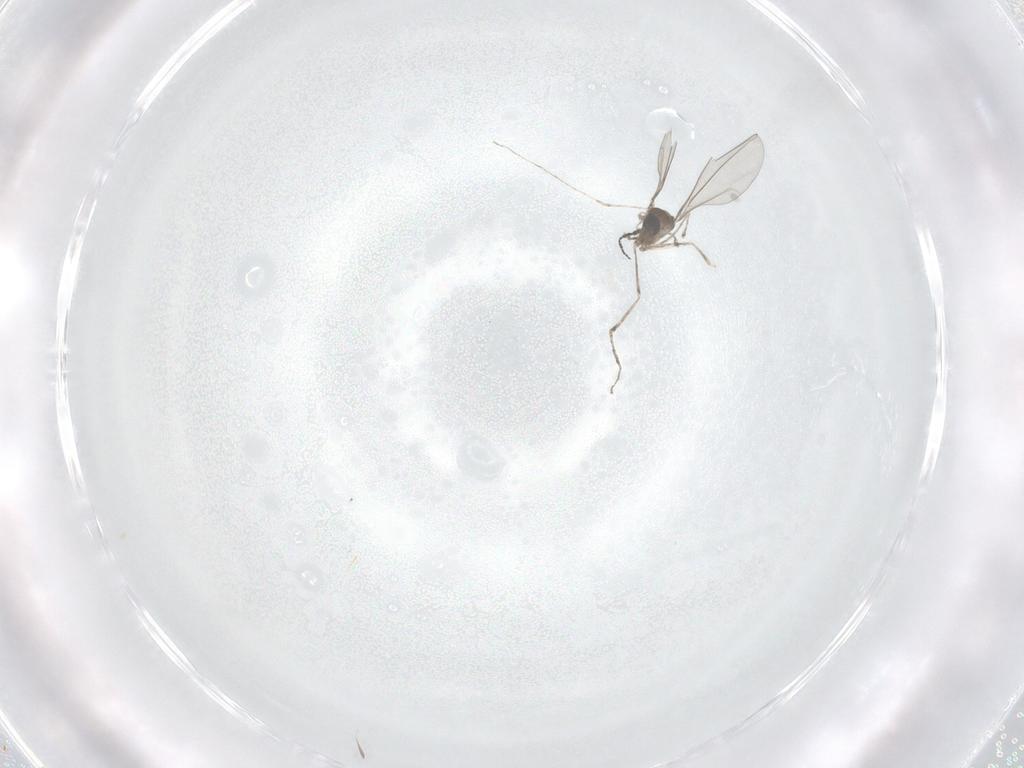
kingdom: Animalia
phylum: Arthropoda
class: Insecta
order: Diptera
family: Cecidomyiidae
